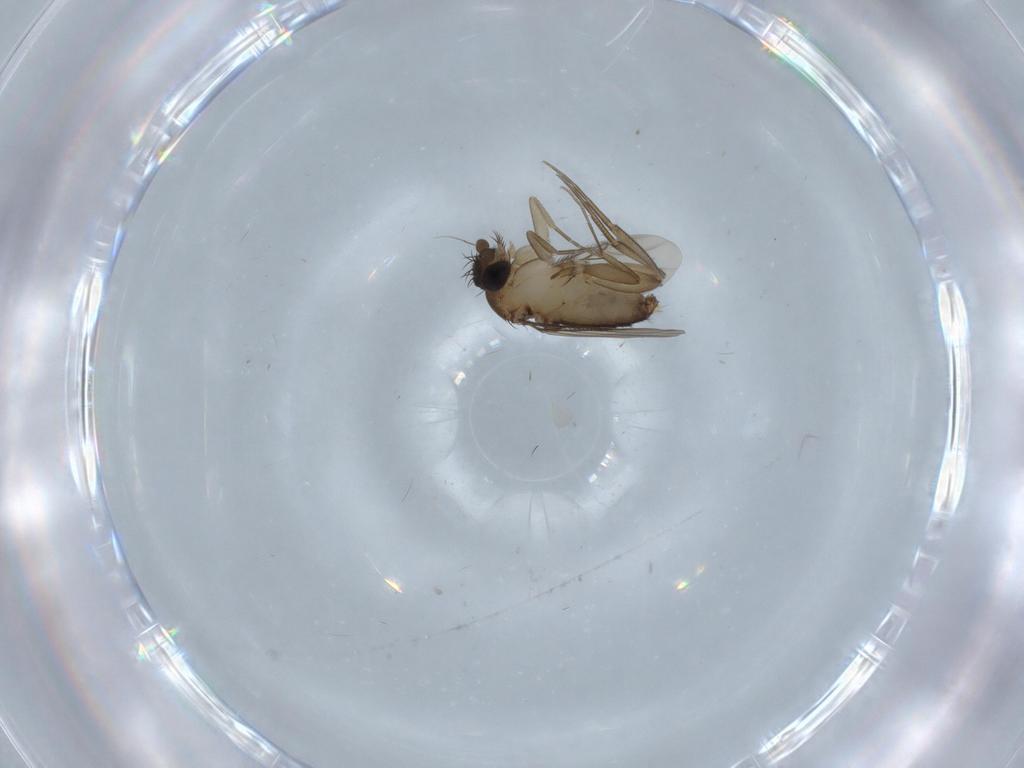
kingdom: Animalia
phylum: Arthropoda
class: Insecta
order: Diptera
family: Phoridae
